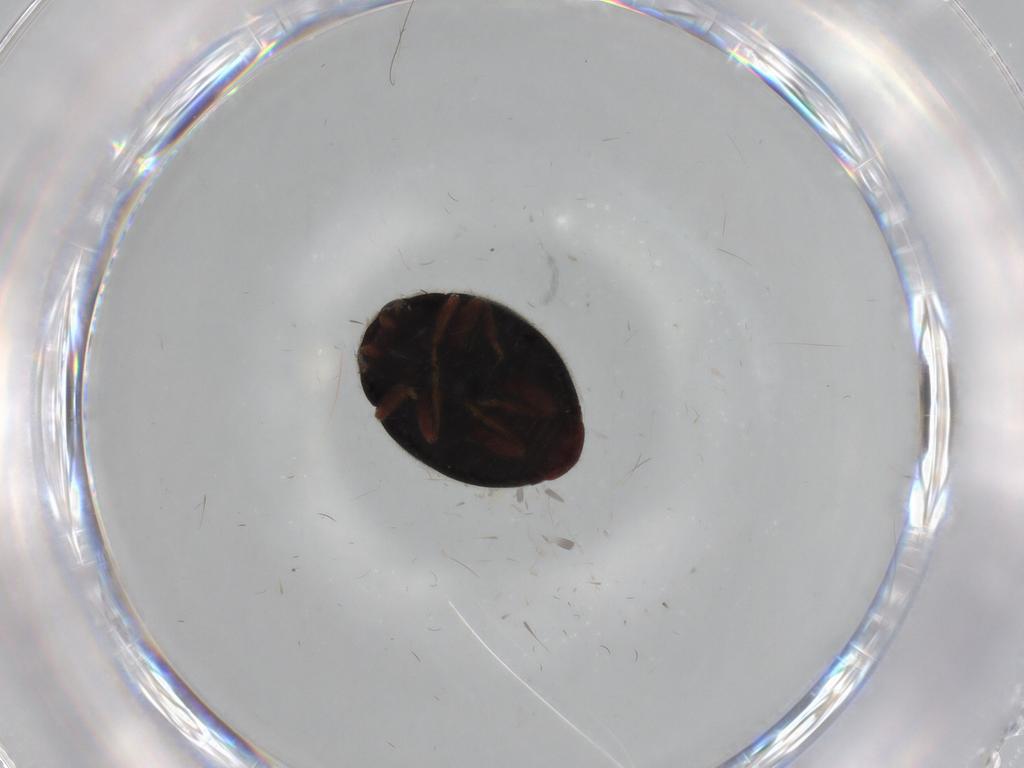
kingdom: Animalia
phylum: Arthropoda
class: Insecta
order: Coleoptera
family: Coccinellidae
